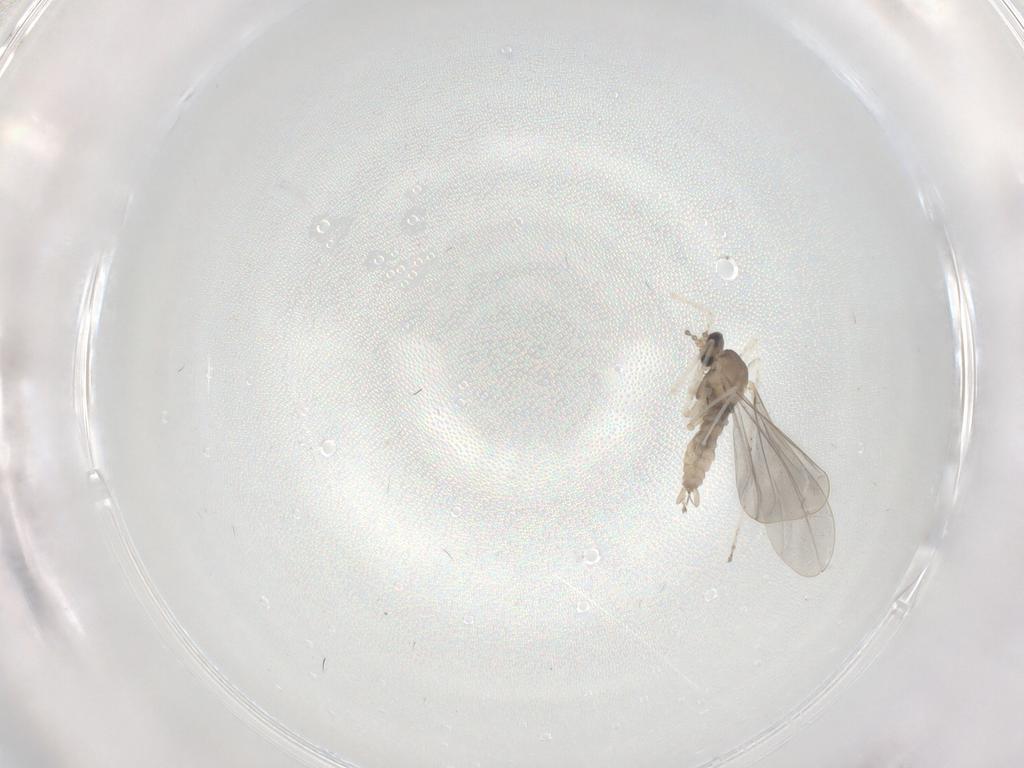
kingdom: Animalia
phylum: Arthropoda
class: Insecta
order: Diptera
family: Cecidomyiidae
